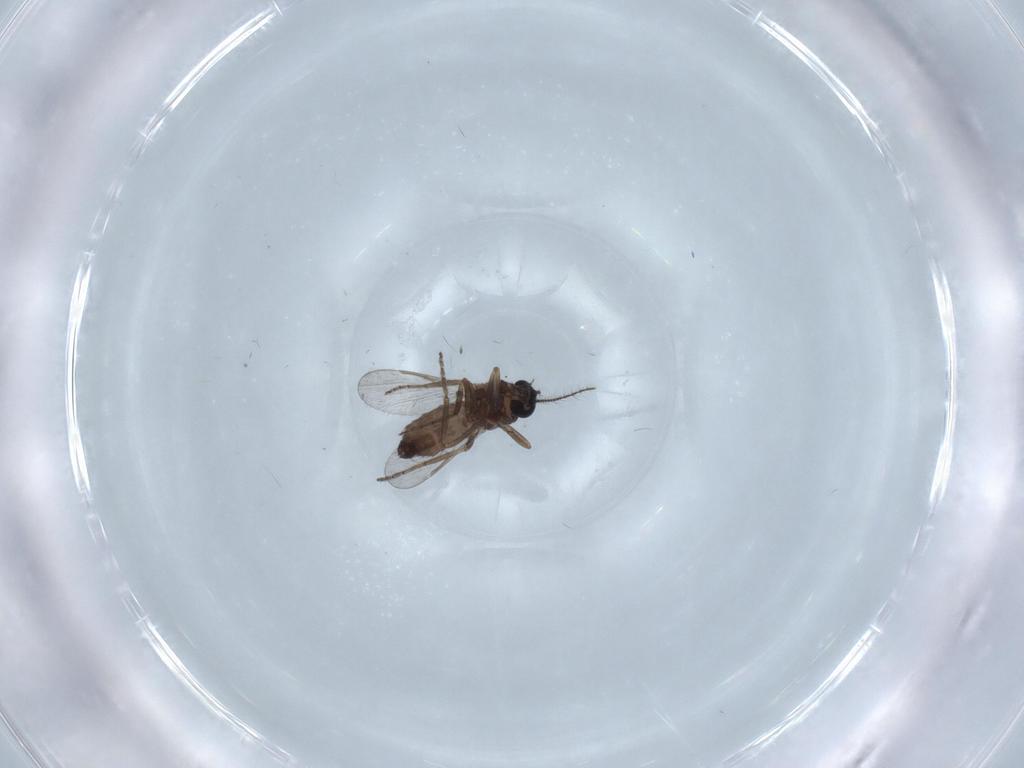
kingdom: Animalia
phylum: Arthropoda
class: Insecta
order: Diptera
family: Chironomidae
